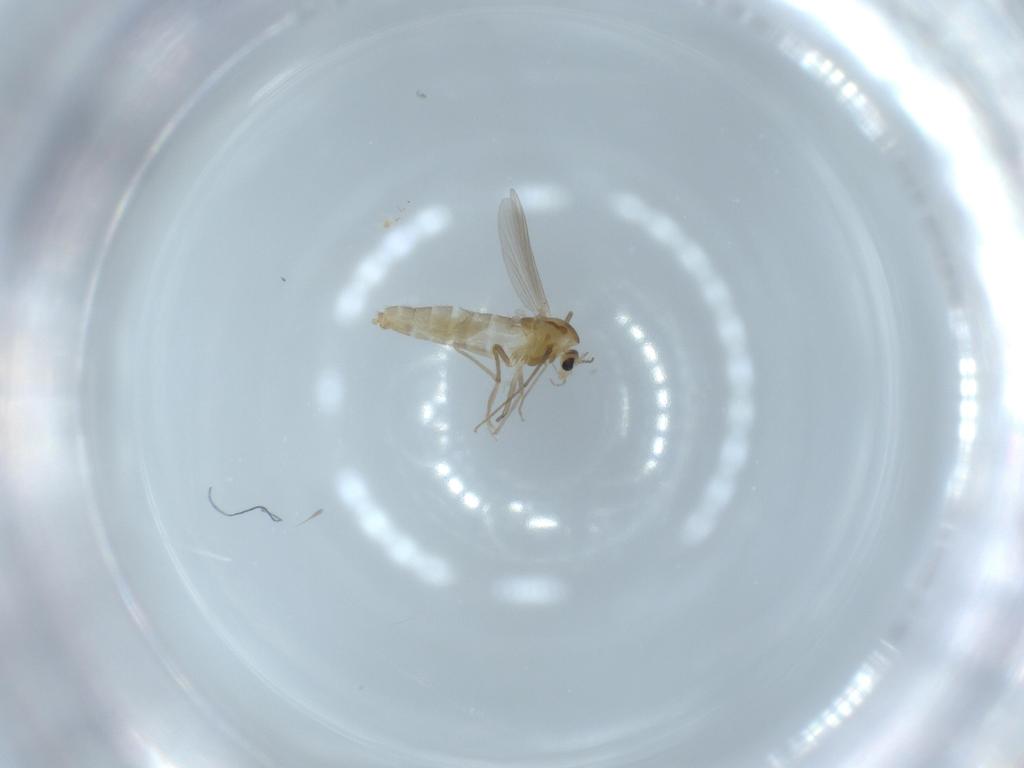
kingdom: Animalia
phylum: Arthropoda
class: Insecta
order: Diptera
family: Chironomidae
